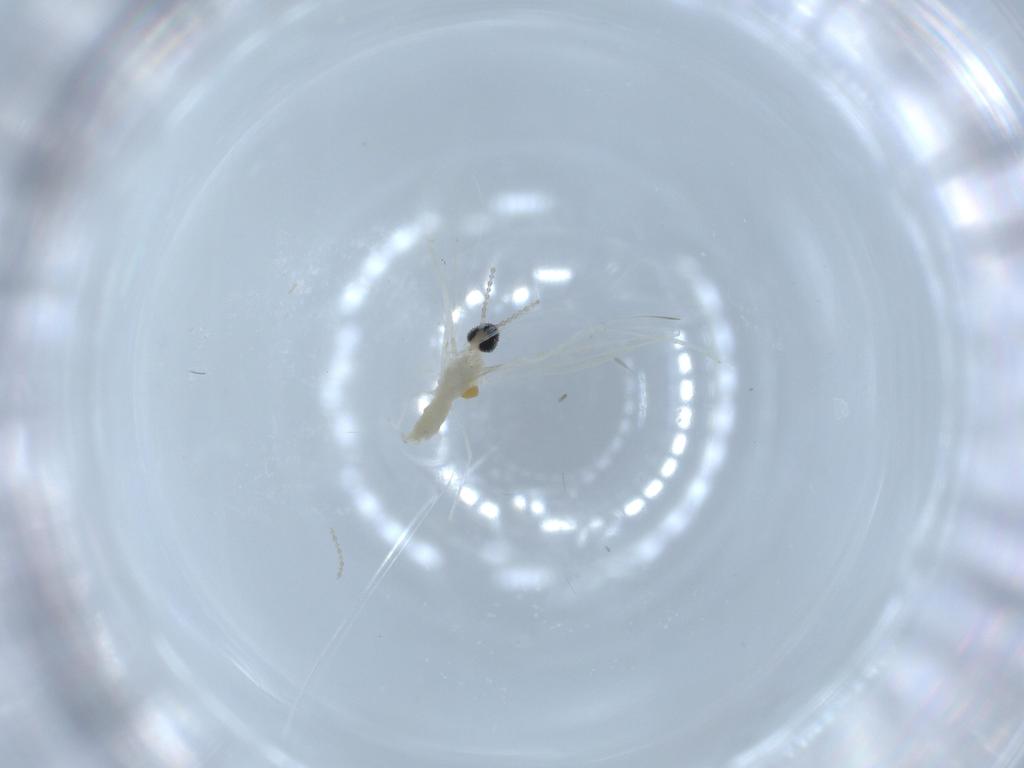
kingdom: Animalia
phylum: Arthropoda
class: Insecta
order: Diptera
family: Cecidomyiidae
